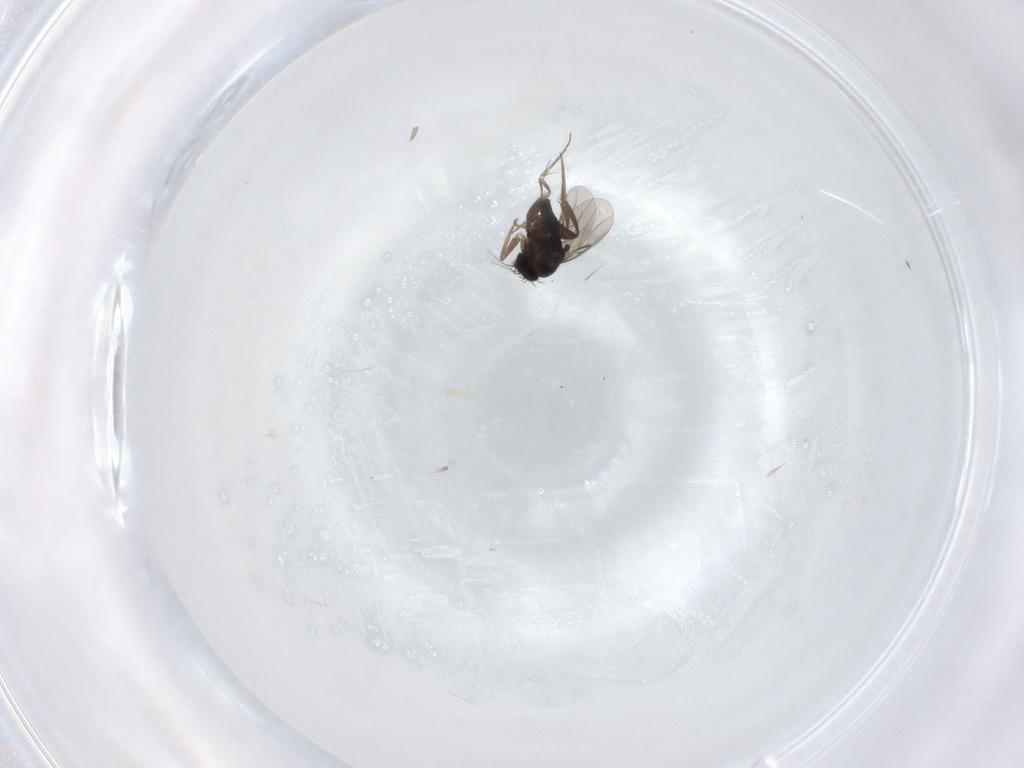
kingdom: Animalia
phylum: Arthropoda
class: Insecta
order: Diptera
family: Phoridae
